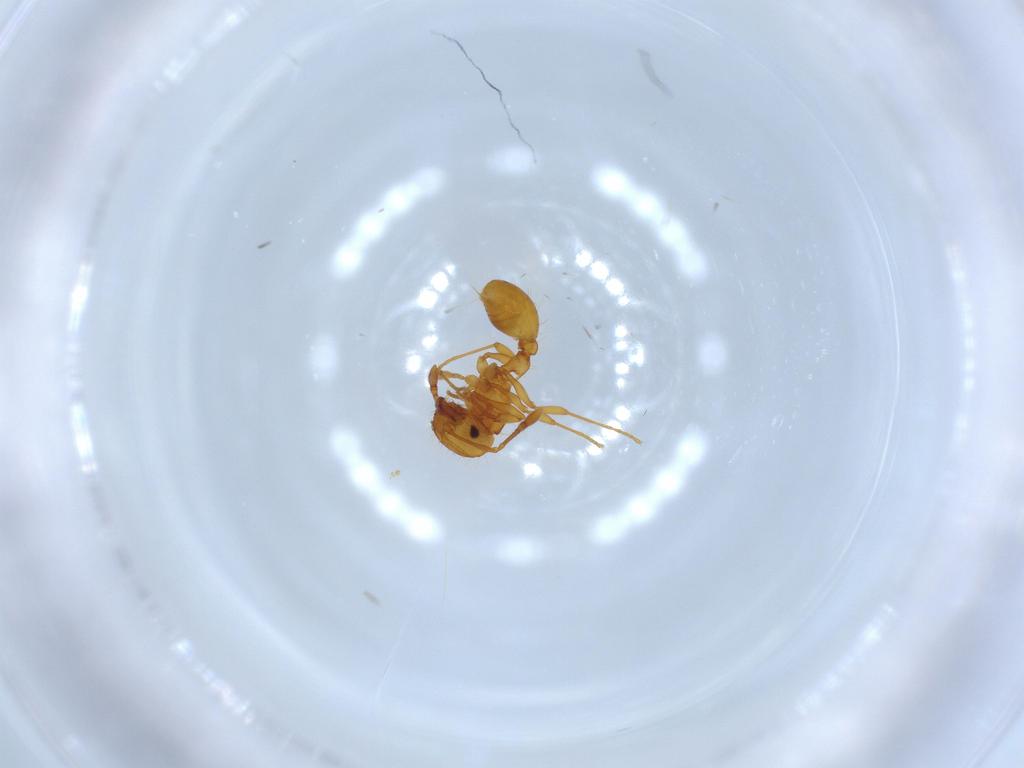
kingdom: Animalia
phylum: Arthropoda
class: Insecta
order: Hymenoptera
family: Formicidae
